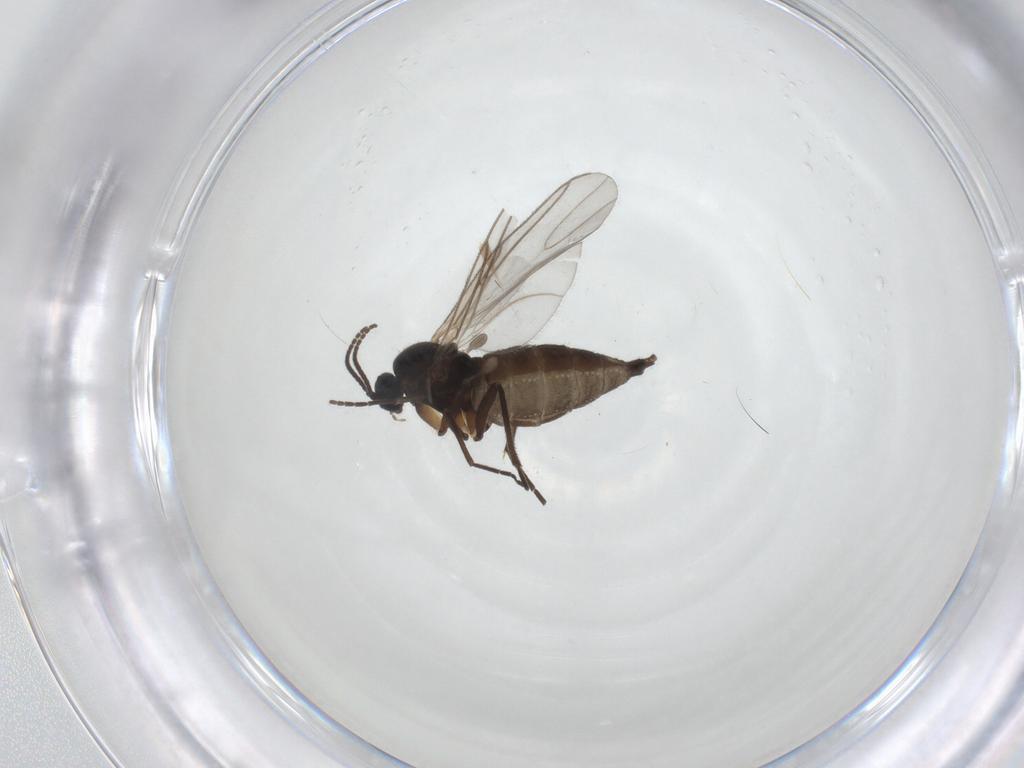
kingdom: Animalia
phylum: Arthropoda
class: Insecta
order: Diptera
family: Sciaridae
